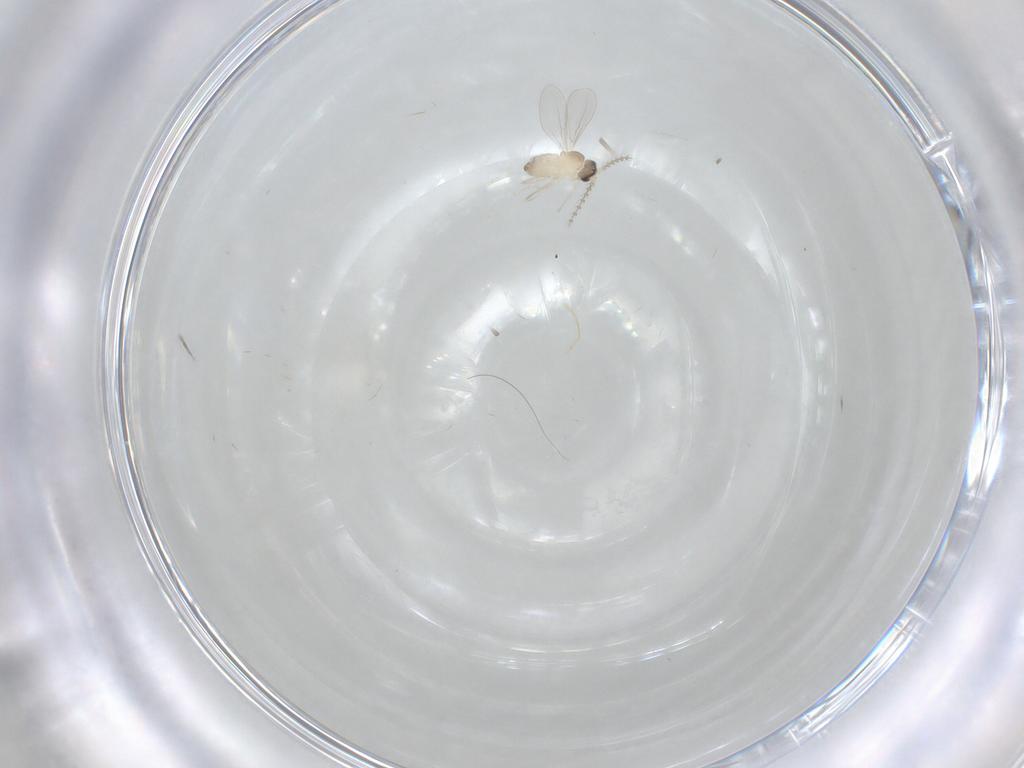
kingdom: Animalia
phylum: Arthropoda
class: Insecta
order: Diptera
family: Cecidomyiidae
